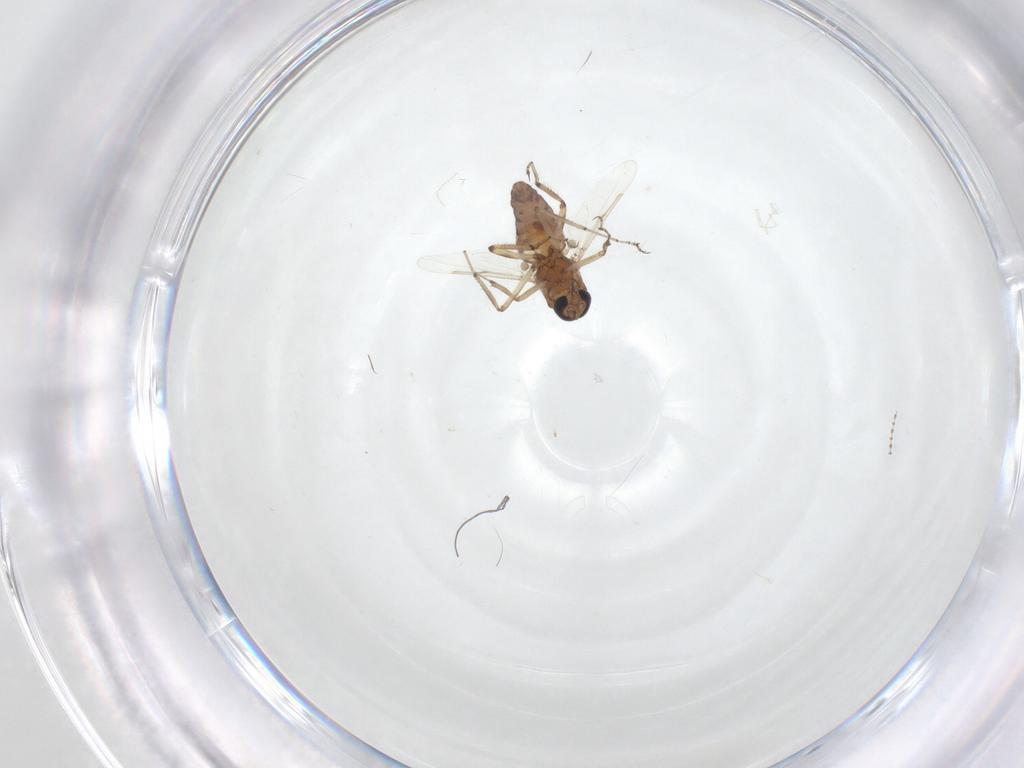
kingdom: Animalia
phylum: Arthropoda
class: Insecta
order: Diptera
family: Ceratopogonidae
